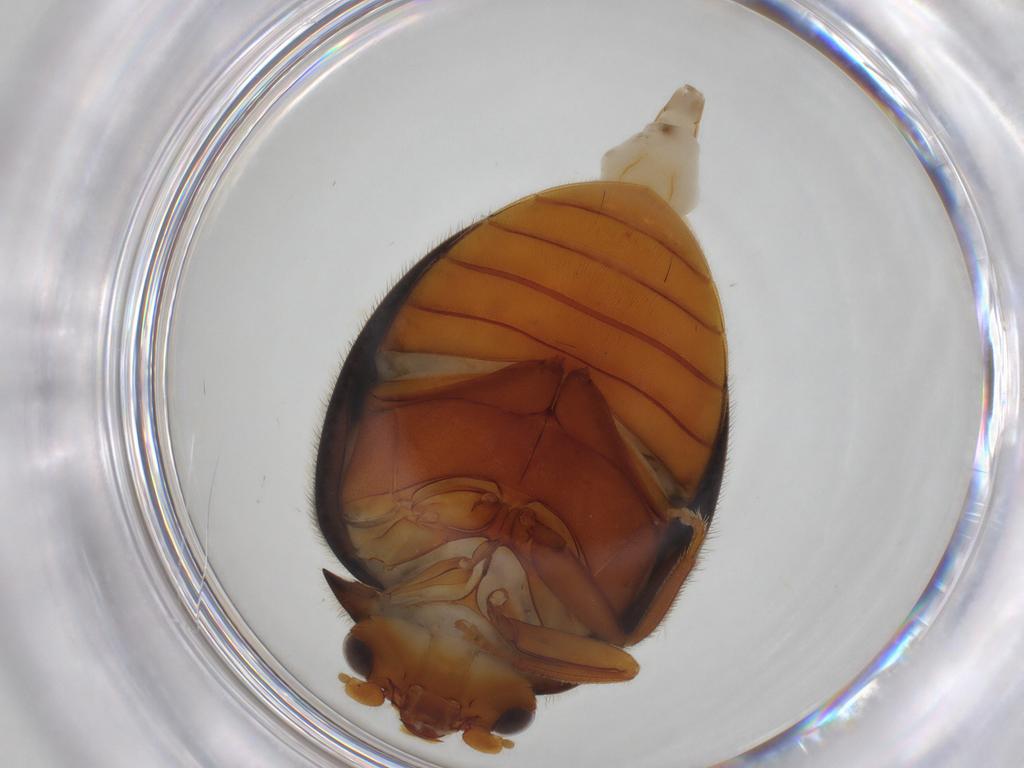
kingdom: Animalia
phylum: Arthropoda
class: Insecta
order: Coleoptera
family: Scirtidae
